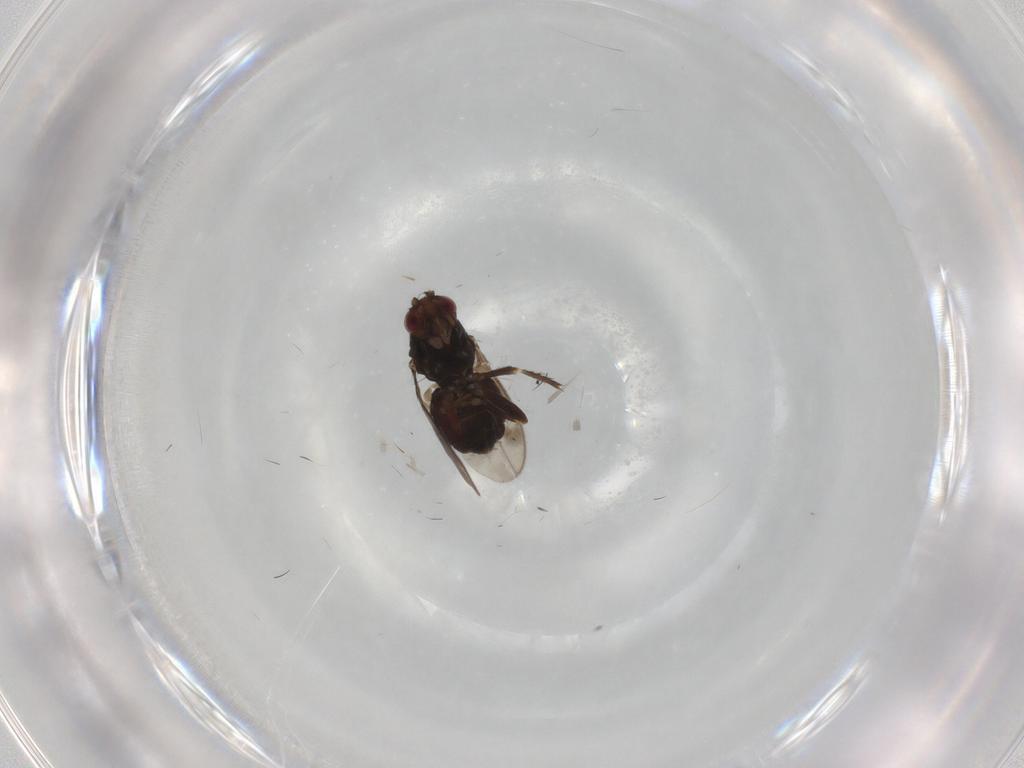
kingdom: Animalia
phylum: Arthropoda
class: Insecta
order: Diptera
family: Sphaeroceridae
